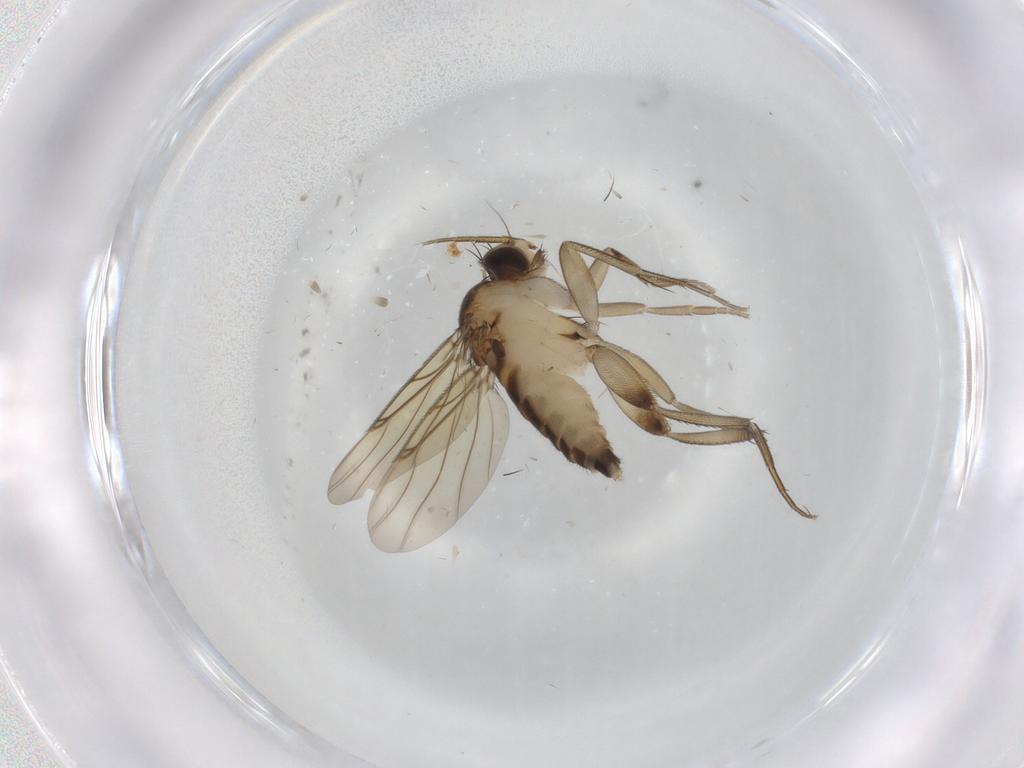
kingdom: Animalia
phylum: Arthropoda
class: Insecta
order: Diptera
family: Phoridae
